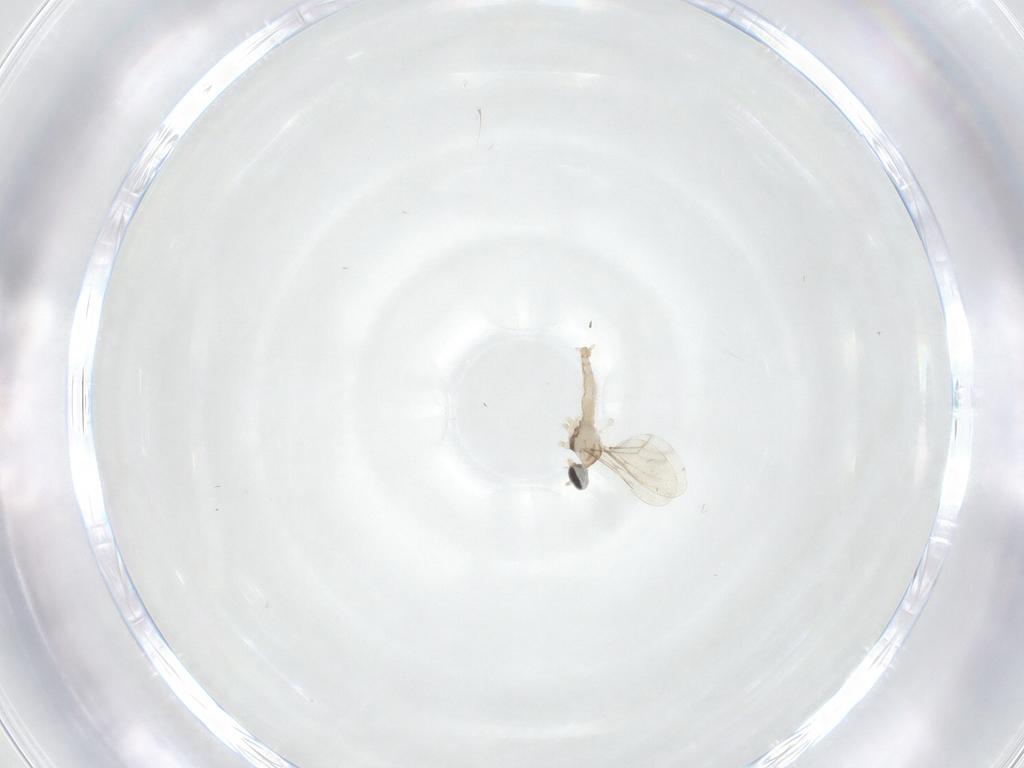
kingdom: Animalia
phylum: Arthropoda
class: Insecta
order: Diptera
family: Cecidomyiidae
